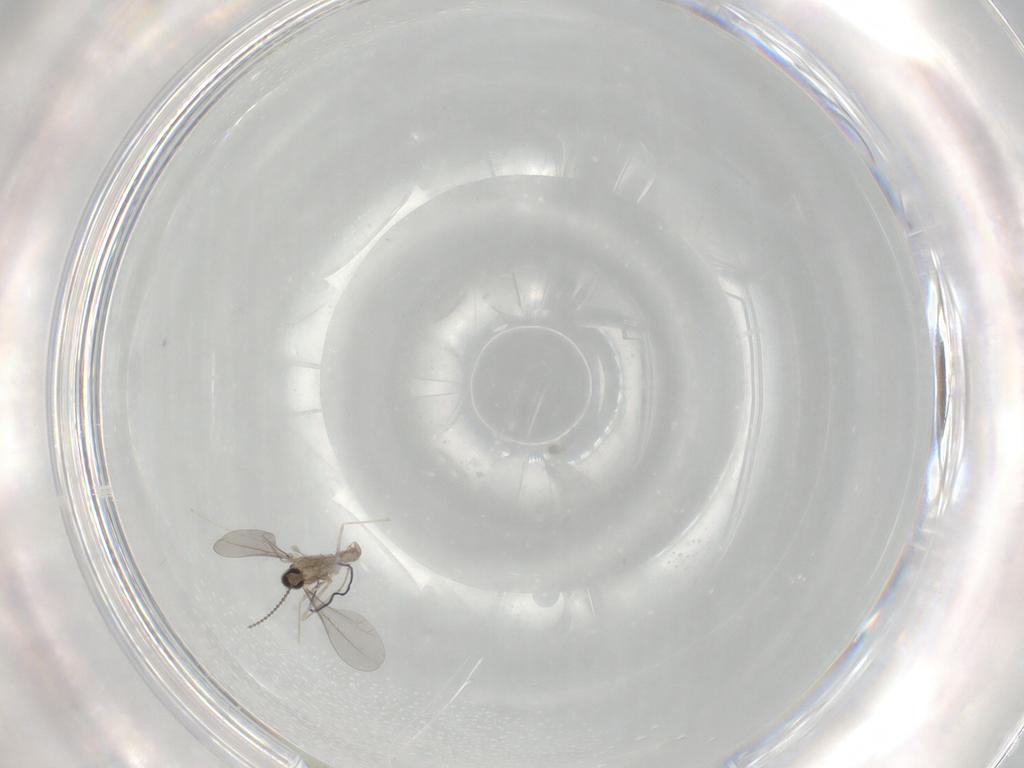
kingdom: Animalia
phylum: Arthropoda
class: Insecta
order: Diptera
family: Cecidomyiidae
